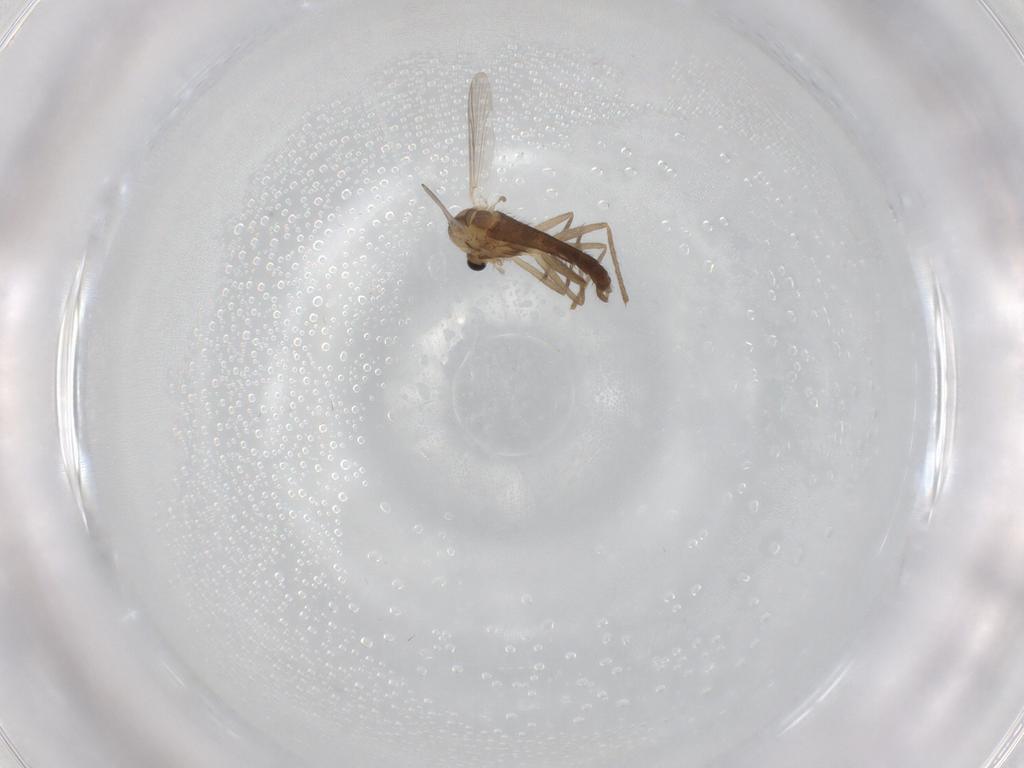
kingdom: Animalia
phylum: Arthropoda
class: Insecta
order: Diptera
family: Chironomidae
